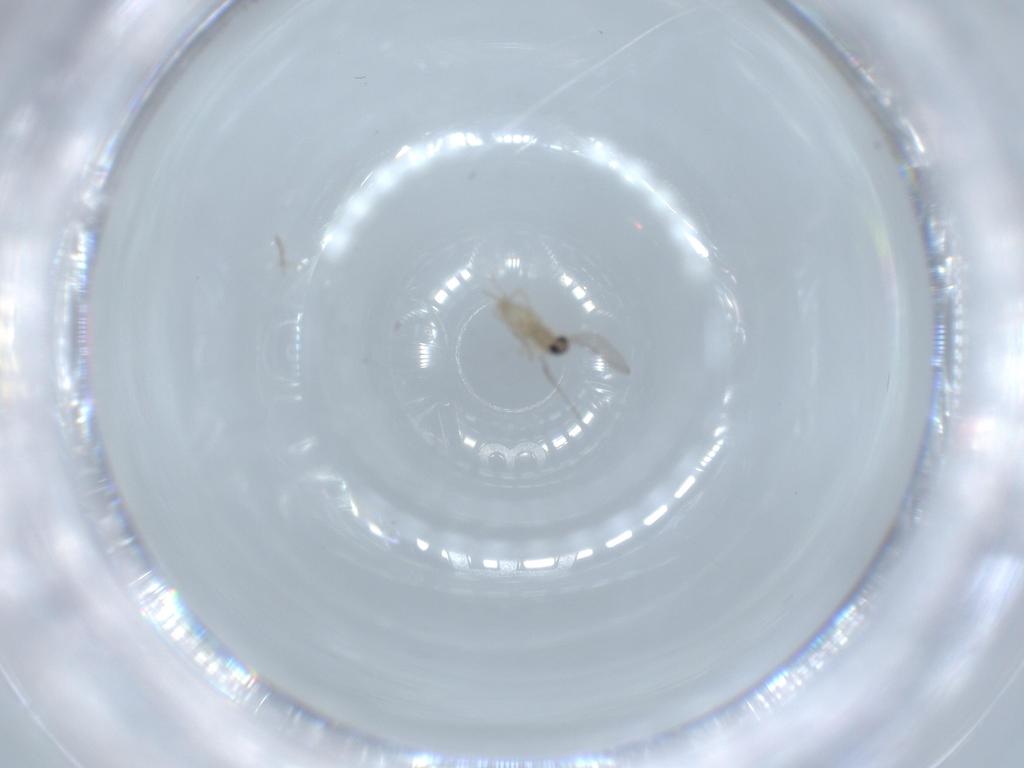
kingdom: Animalia
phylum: Arthropoda
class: Insecta
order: Diptera
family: Cecidomyiidae
